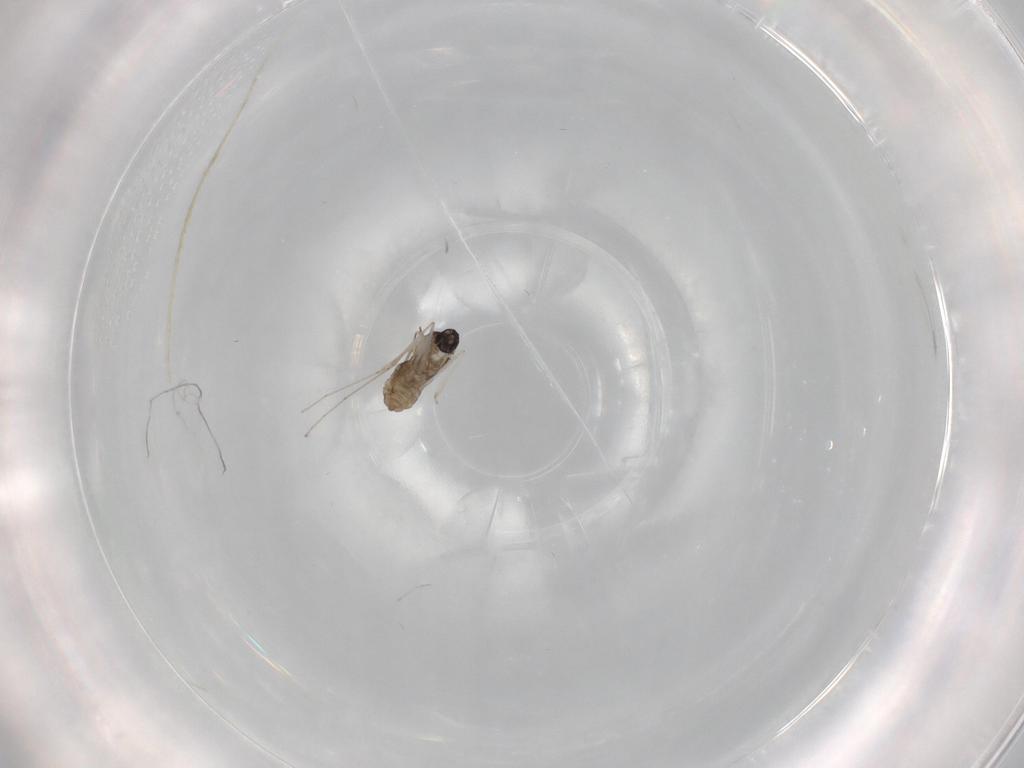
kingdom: Animalia
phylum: Arthropoda
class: Insecta
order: Diptera
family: Cecidomyiidae
